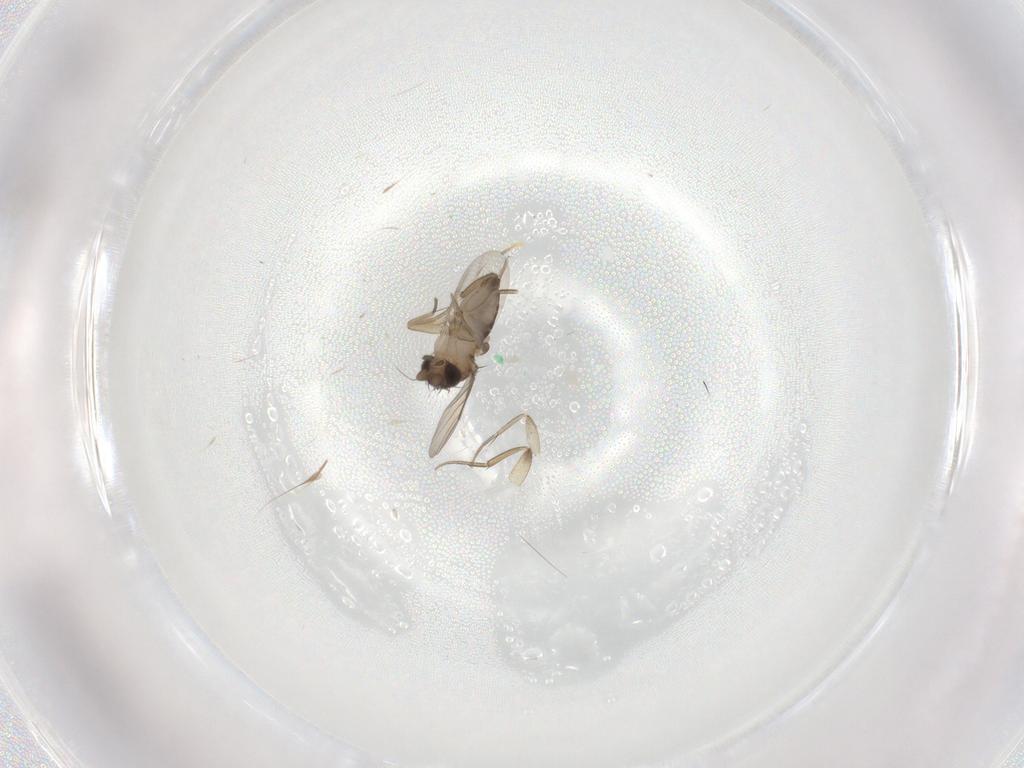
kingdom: Animalia
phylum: Arthropoda
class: Insecta
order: Diptera
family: Phoridae
